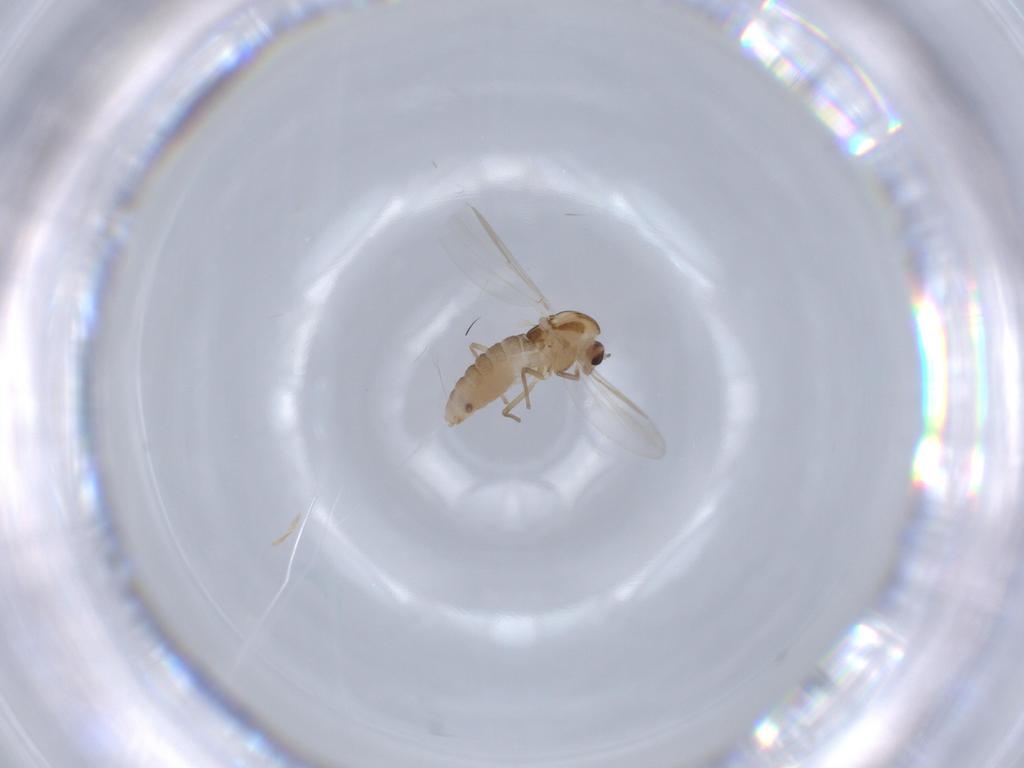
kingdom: Animalia
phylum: Arthropoda
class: Insecta
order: Diptera
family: Chironomidae
